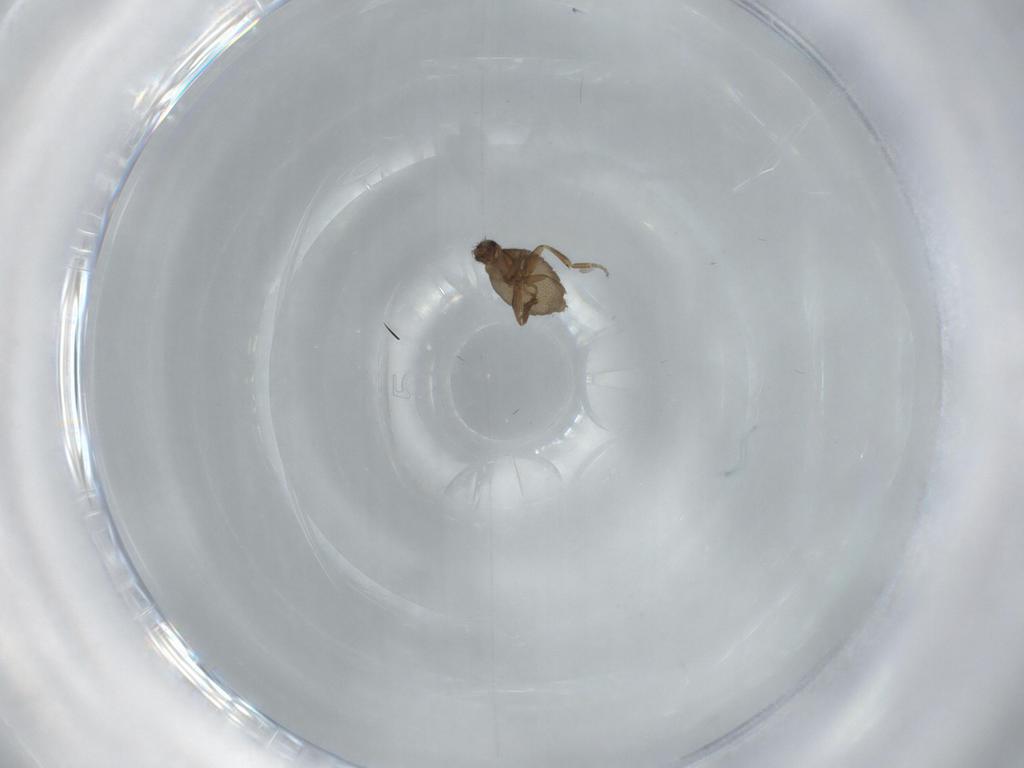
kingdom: Animalia
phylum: Arthropoda
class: Insecta
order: Diptera
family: Phoridae
